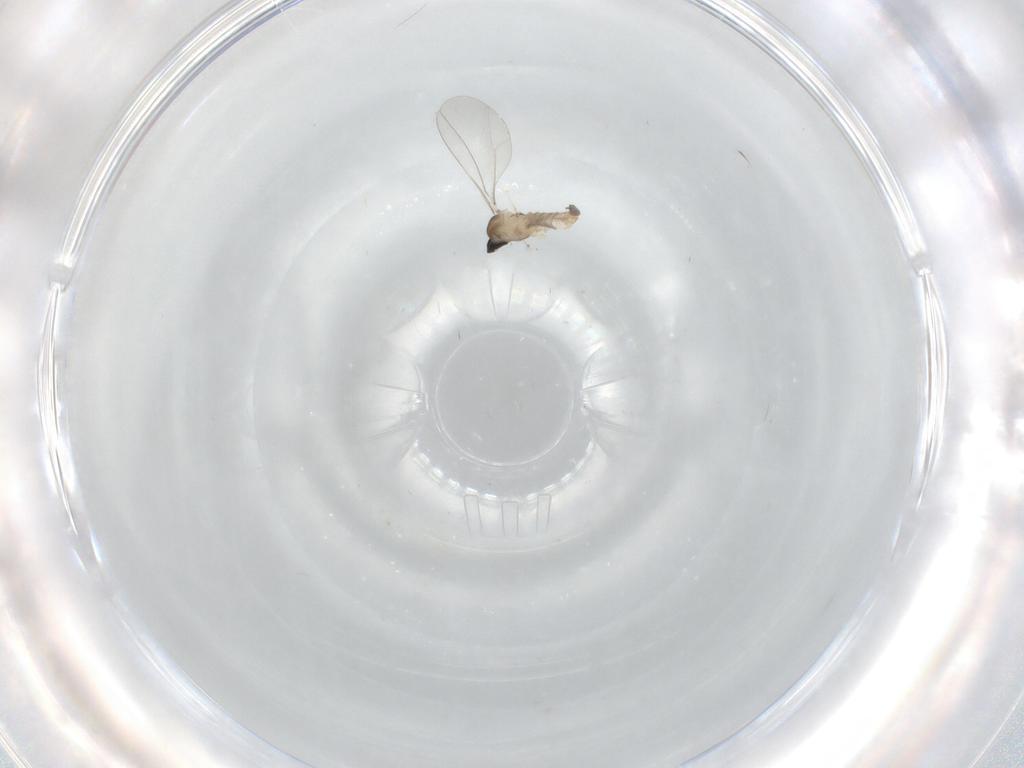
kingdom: Animalia
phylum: Arthropoda
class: Insecta
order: Diptera
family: Cecidomyiidae
